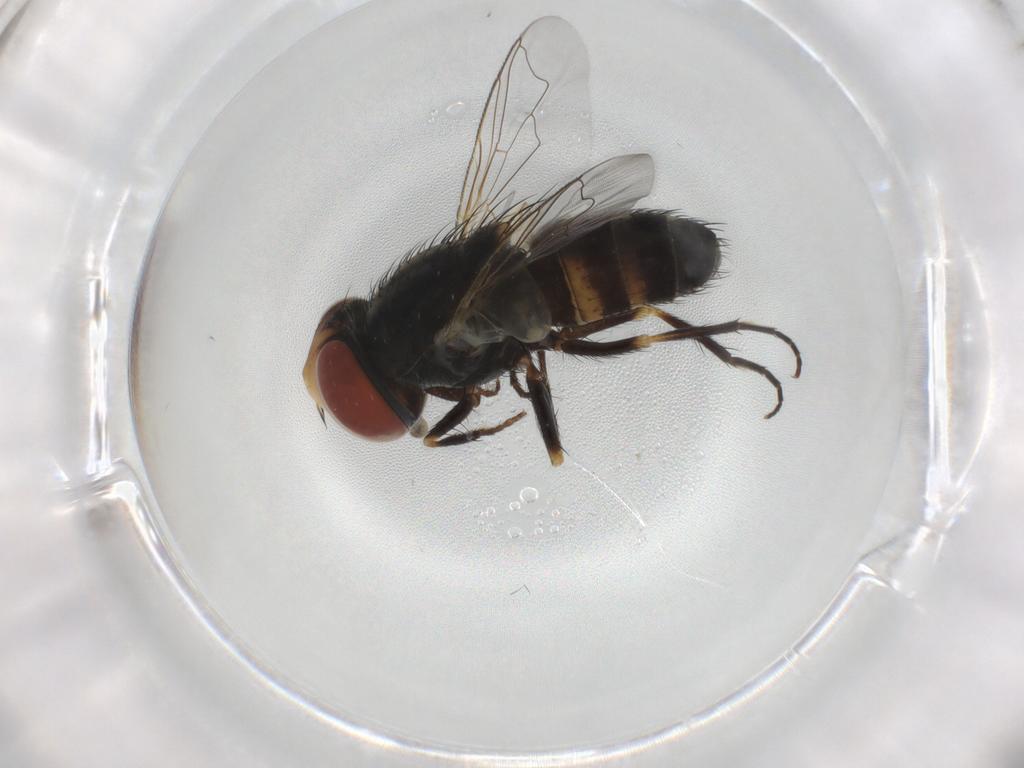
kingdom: Animalia
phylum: Arthropoda
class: Insecta
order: Diptera
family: Sarcophagidae
